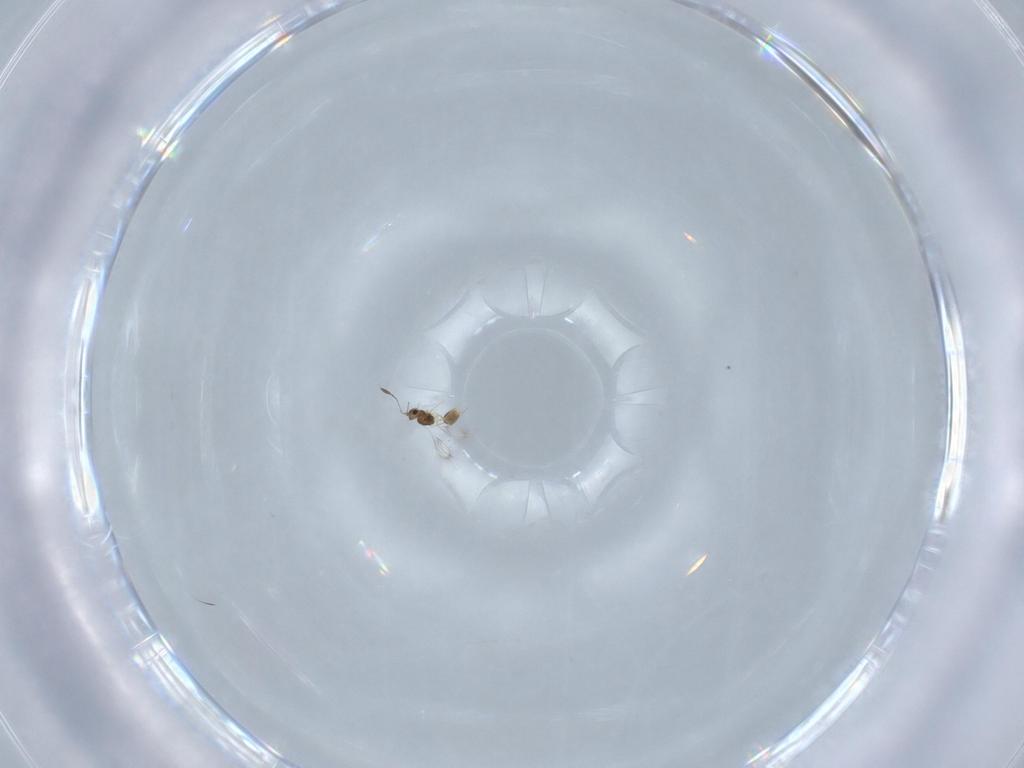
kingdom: Animalia
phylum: Arthropoda
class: Insecta
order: Hymenoptera
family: Mymarommatidae
